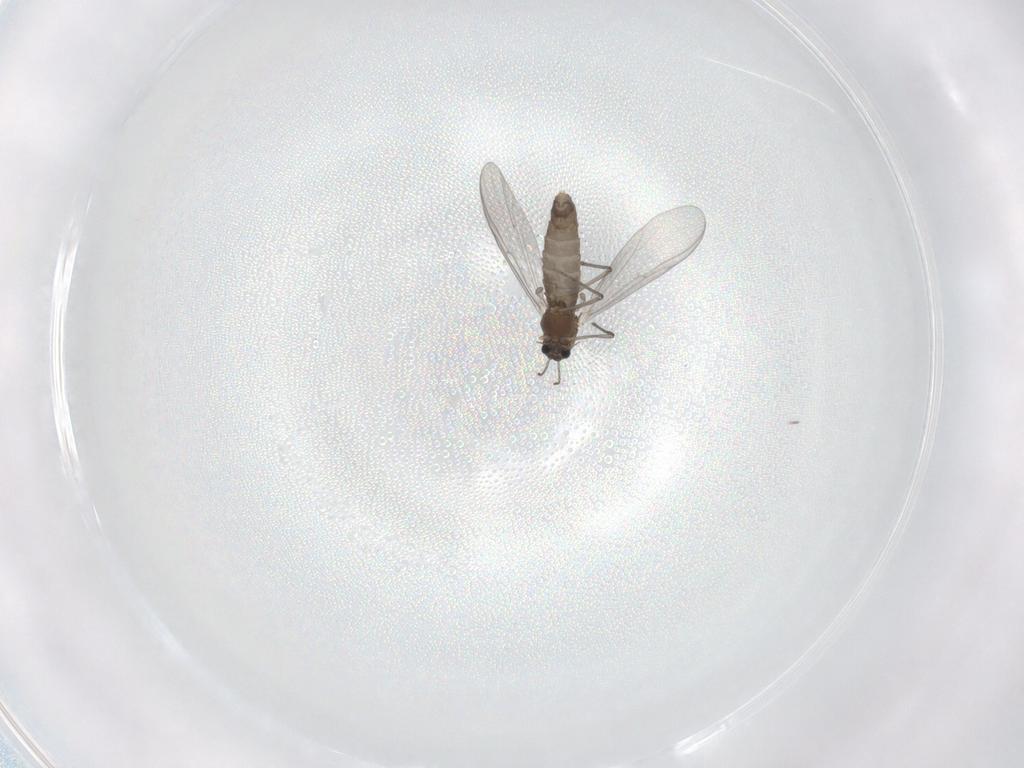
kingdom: Animalia
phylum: Arthropoda
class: Insecta
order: Diptera
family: Chironomidae
